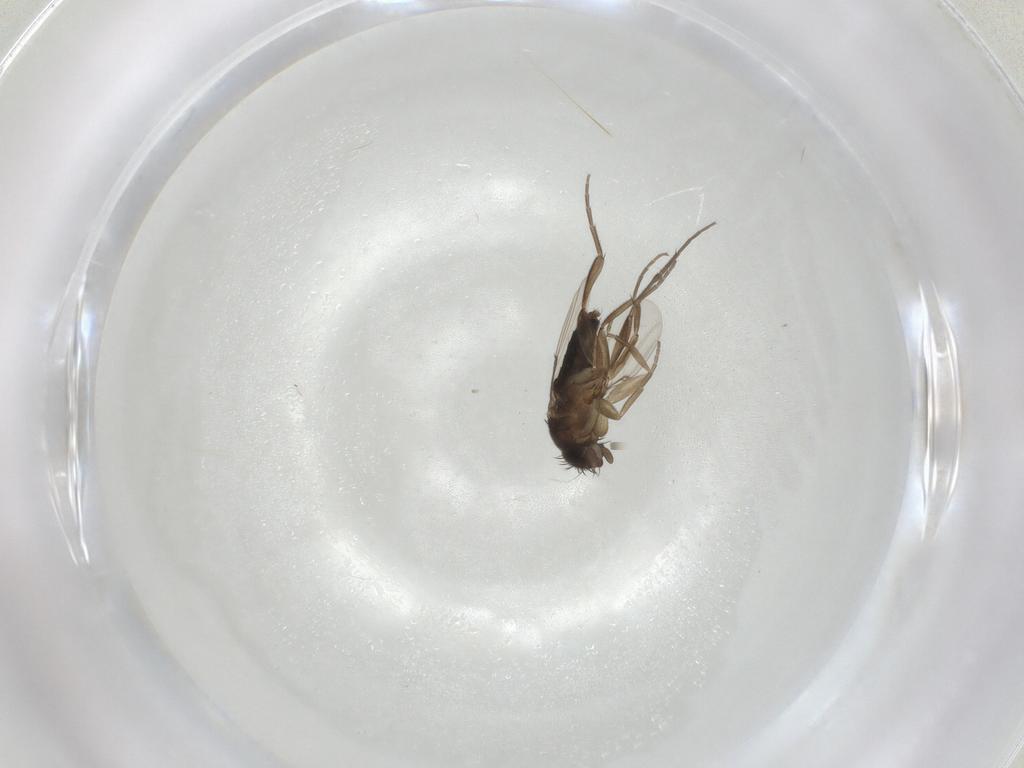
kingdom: Animalia
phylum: Arthropoda
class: Insecta
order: Diptera
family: Phoridae
